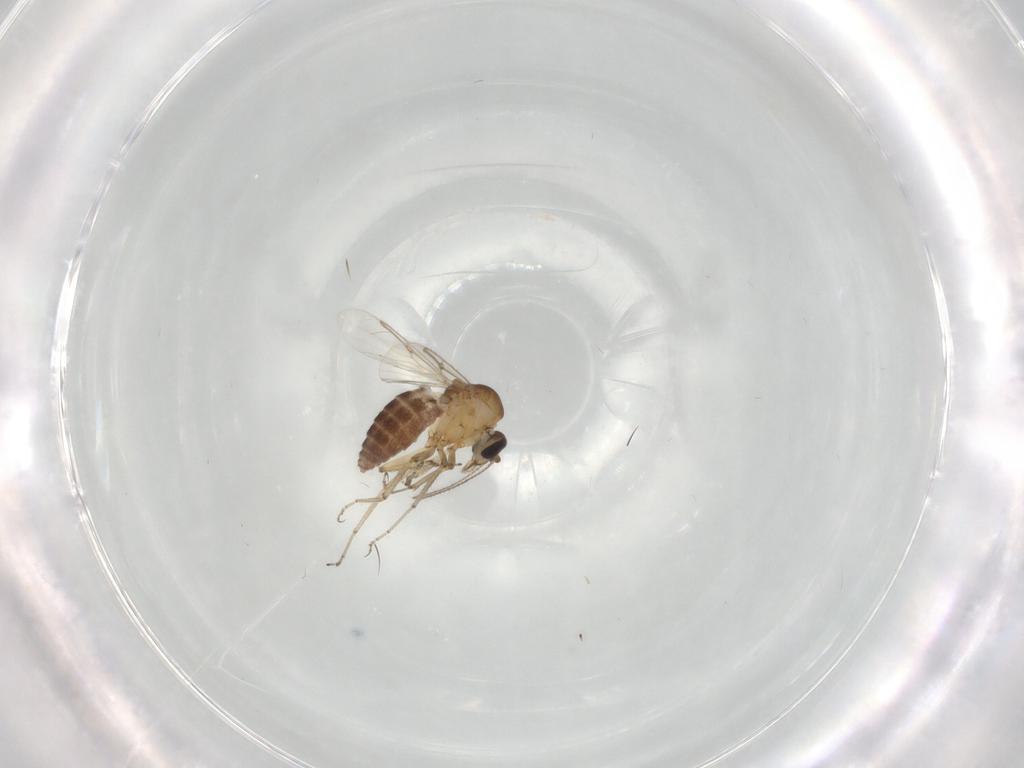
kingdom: Animalia
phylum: Arthropoda
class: Insecta
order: Diptera
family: Ceratopogonidae
